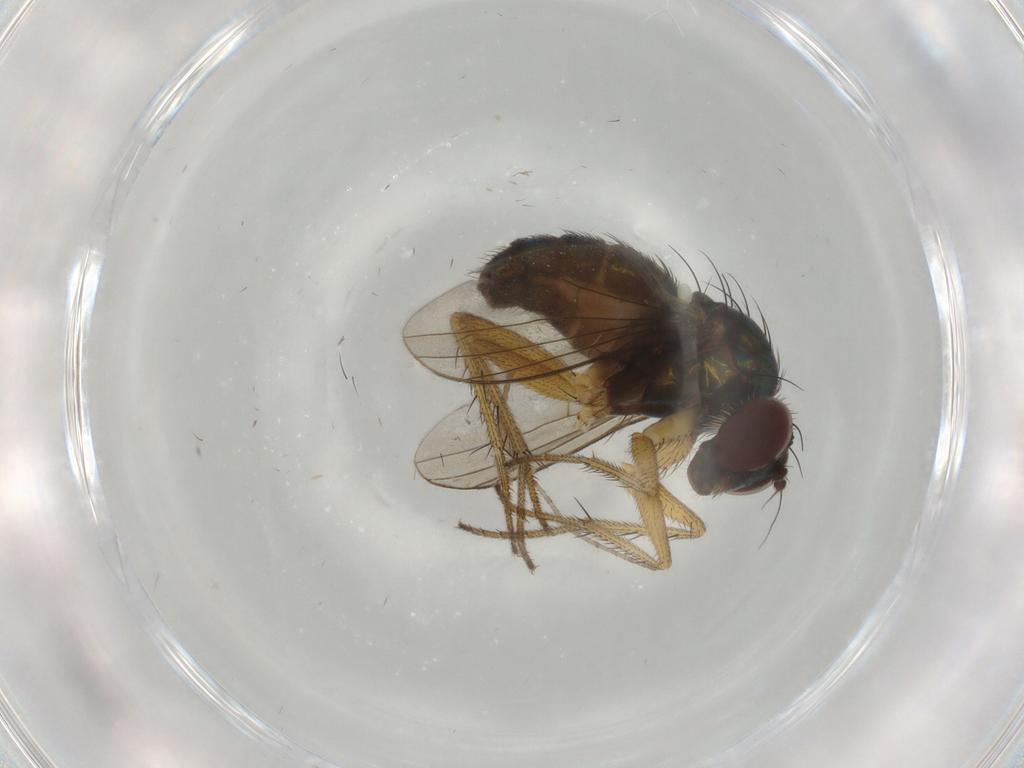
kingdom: Animalia
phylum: Arthropoda
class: Insecta
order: Diptera
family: Dolichopodidae
